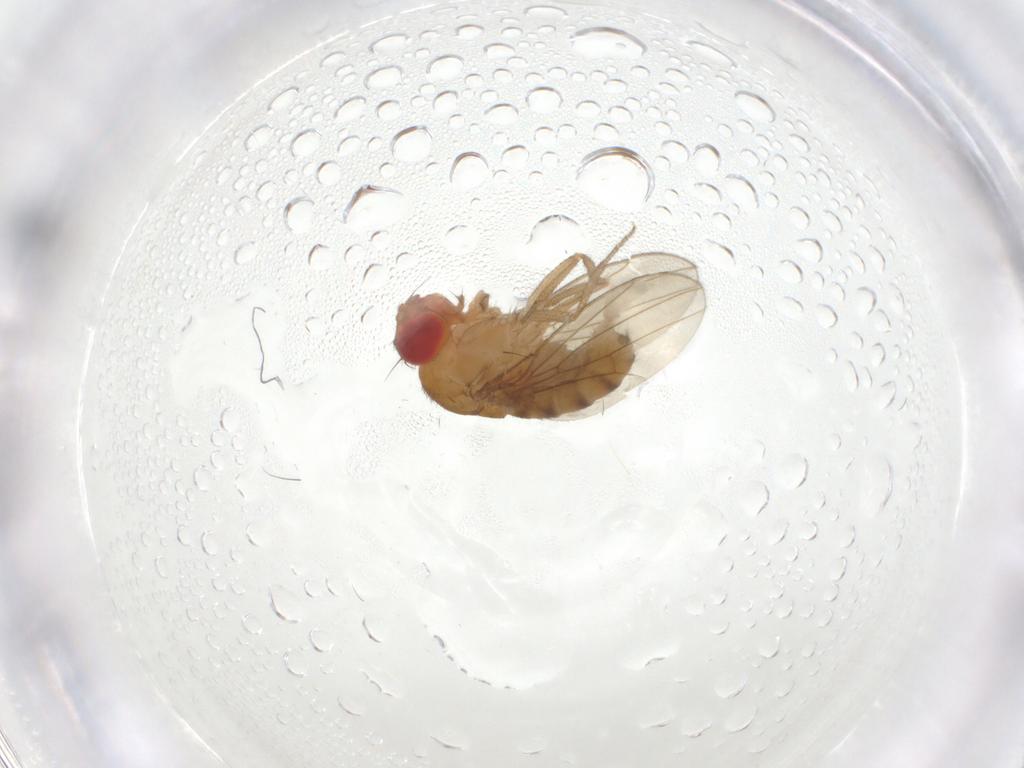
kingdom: Animalia
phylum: Arthropoda
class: Insecta
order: Diptera
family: Drosophilidae
